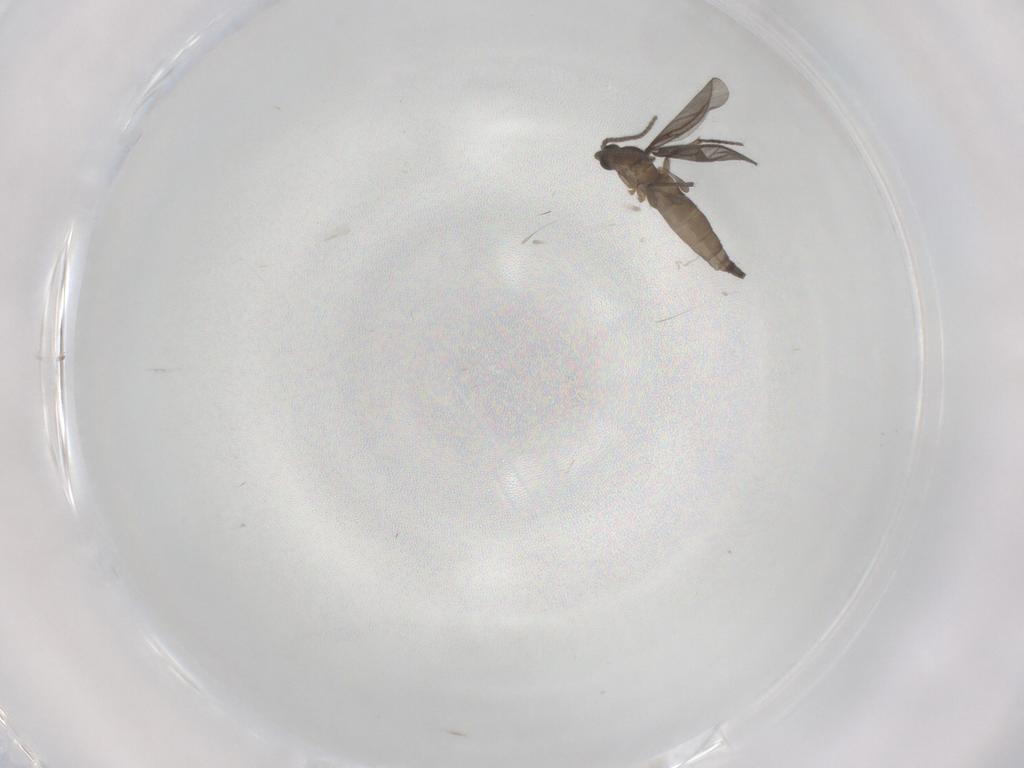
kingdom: Animalia
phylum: Arthropoda
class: Insecta
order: Diptera
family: Sciaridae
